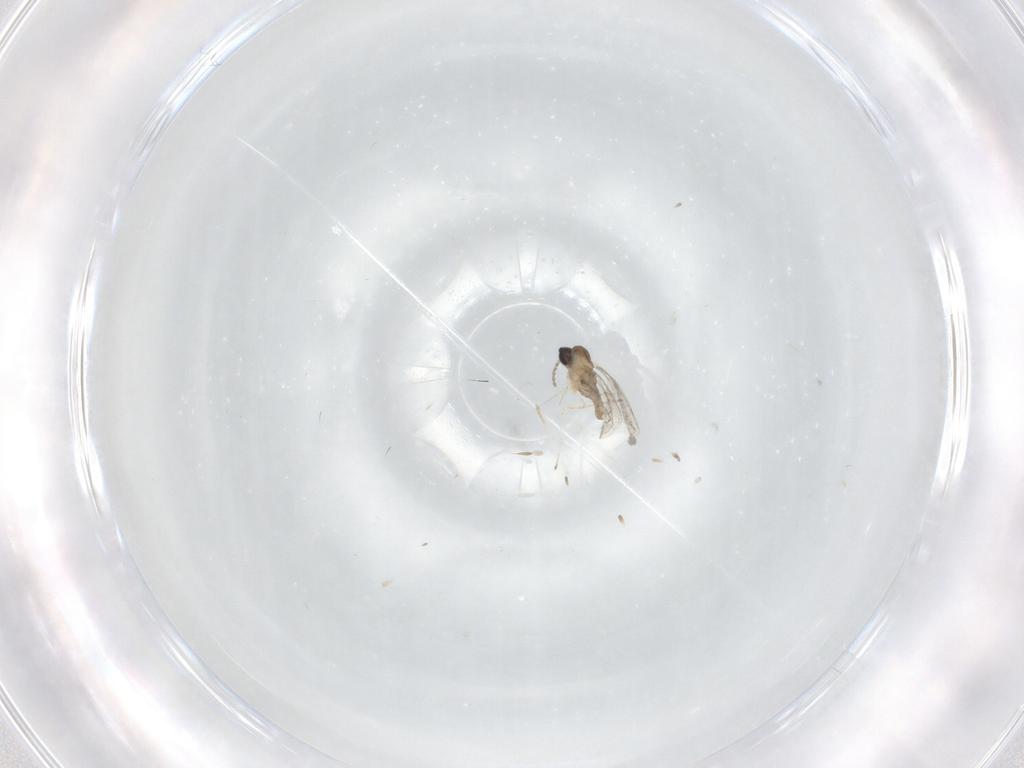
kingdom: Animalia
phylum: Arthropoda
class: Insecta
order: Diptera
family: Cecidomyiidae
